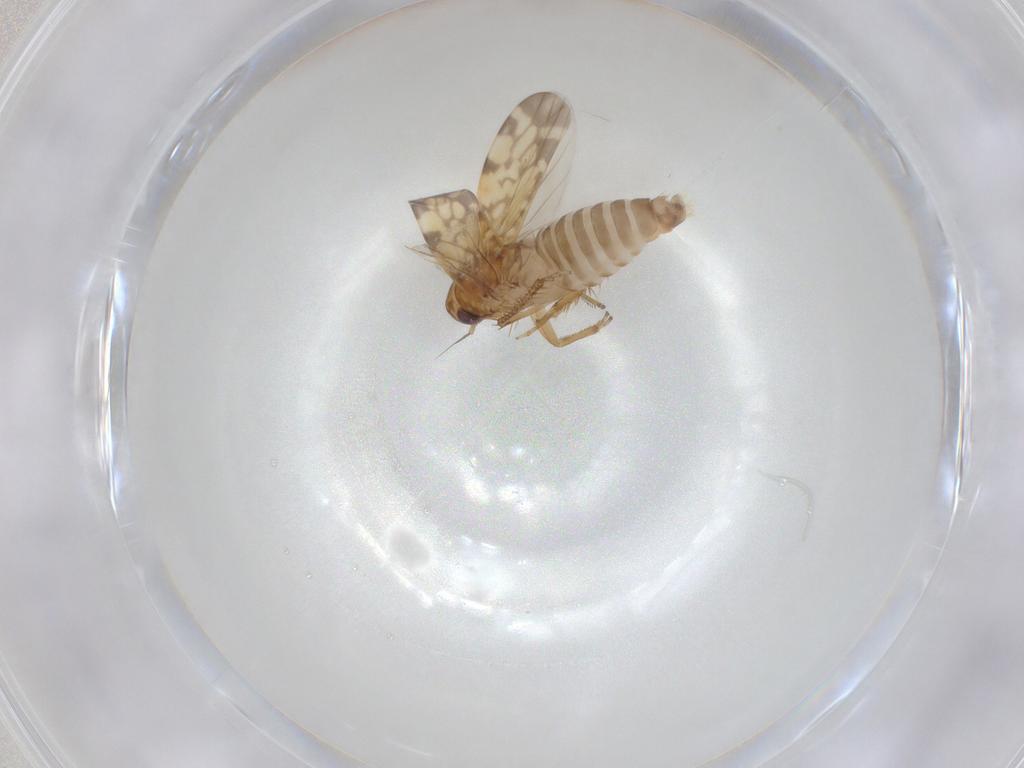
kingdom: Animalia
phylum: Arthropoda
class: Insecta
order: Hemiptera
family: Cicadellidae
